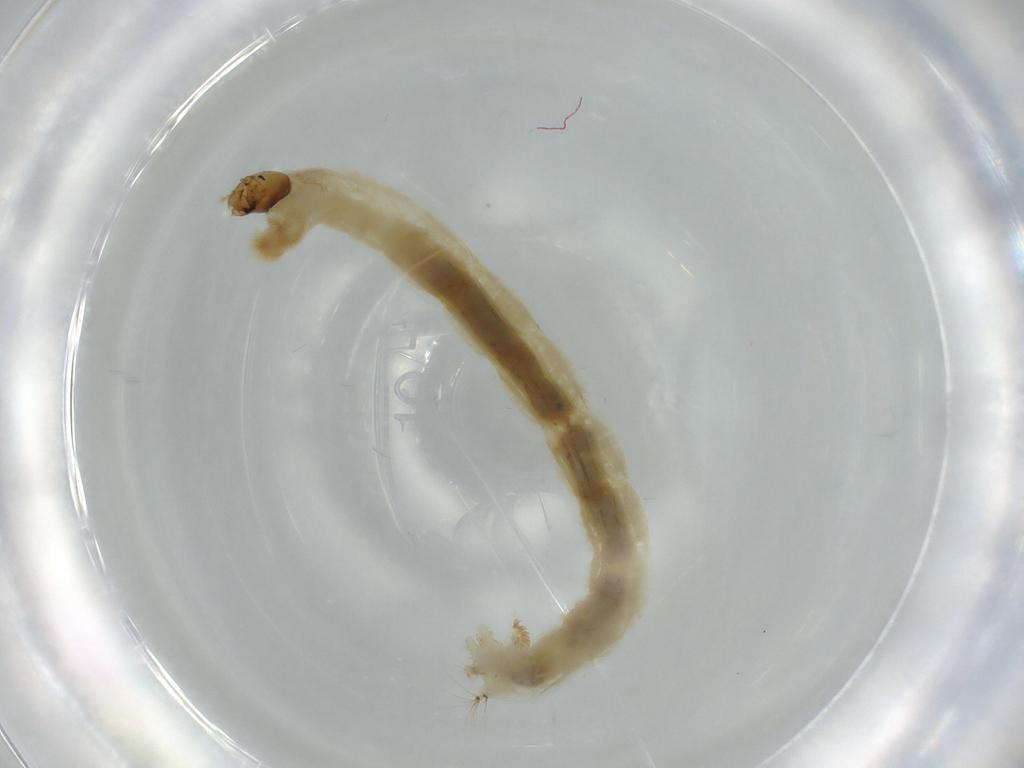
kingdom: Animalia
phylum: Arthropoda
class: Insecta
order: Diptera
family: Chironomidae
